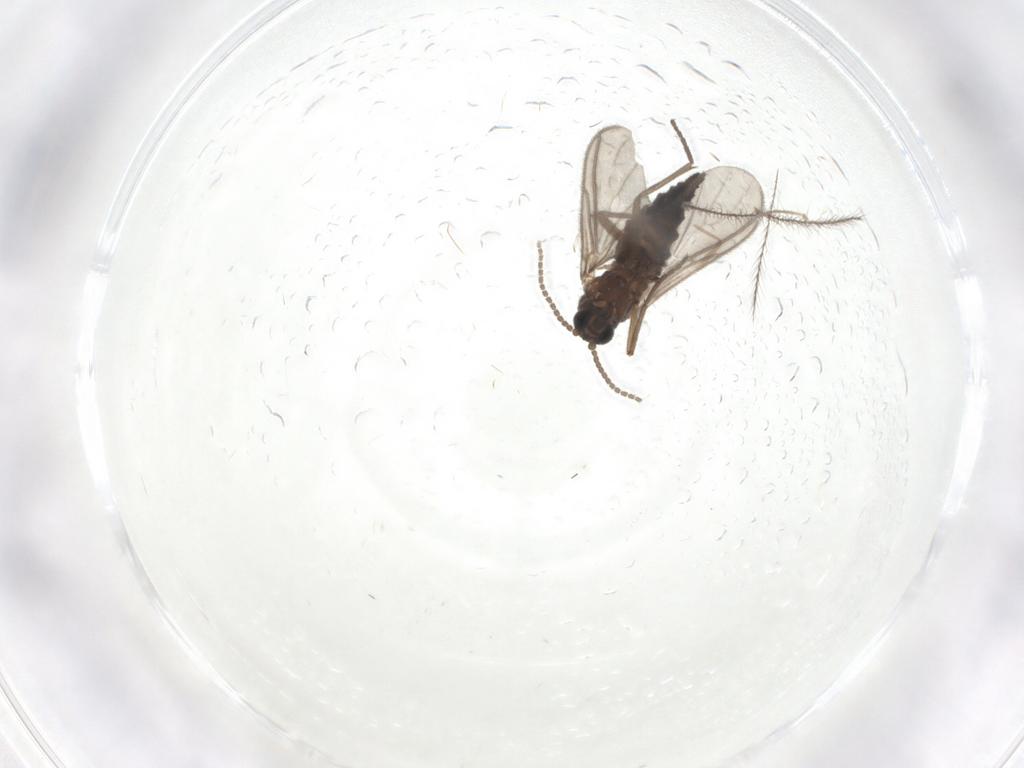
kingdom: Animalia
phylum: Arthropoda
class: Insecta
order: Diptera
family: Sciaridae
